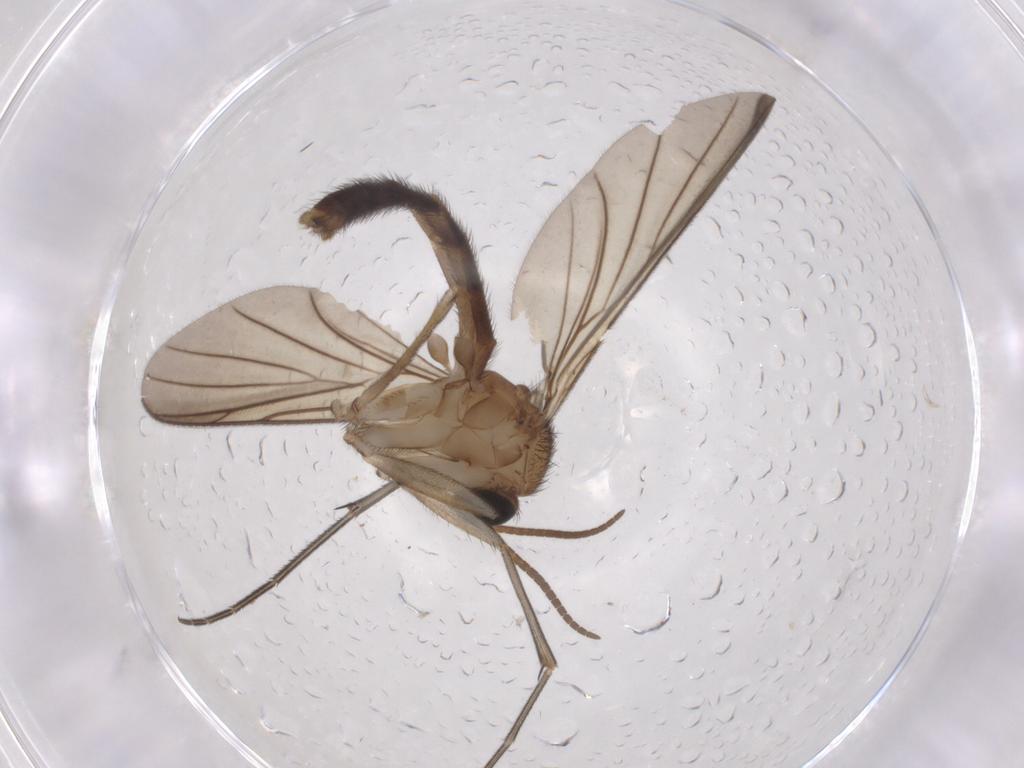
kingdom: Animalia
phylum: Arthropoda
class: Insecta
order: Diptera
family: Keroplatidae
